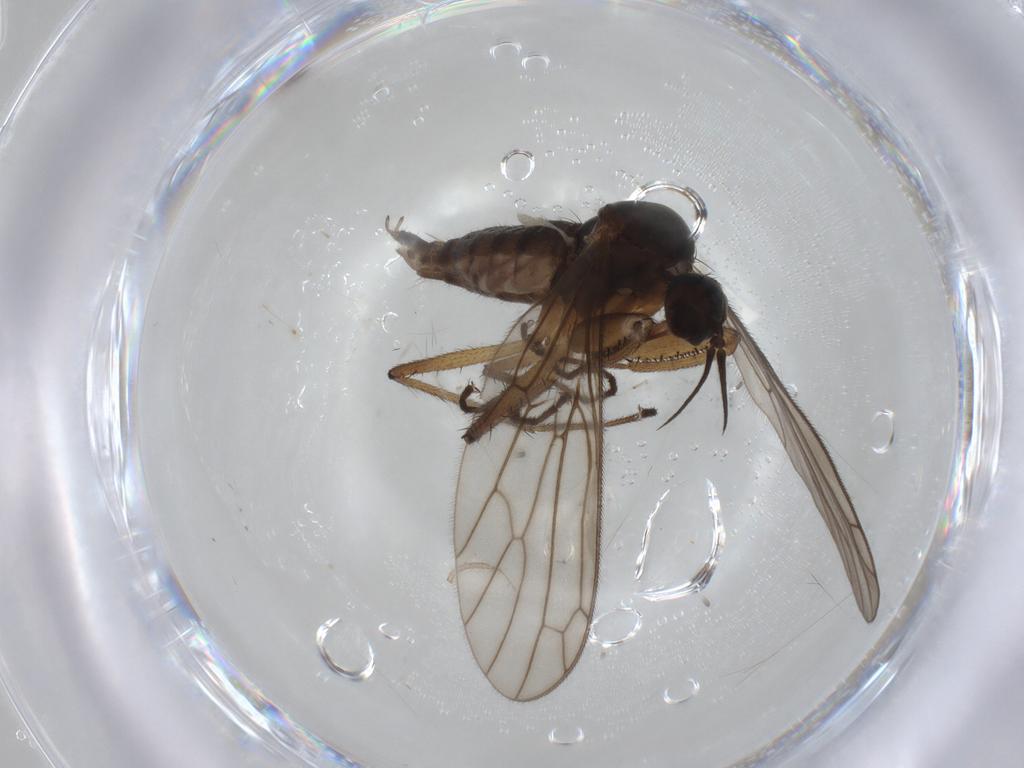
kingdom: Animalia
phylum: Arthropoda
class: Insecta
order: Diptera
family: Empididae
